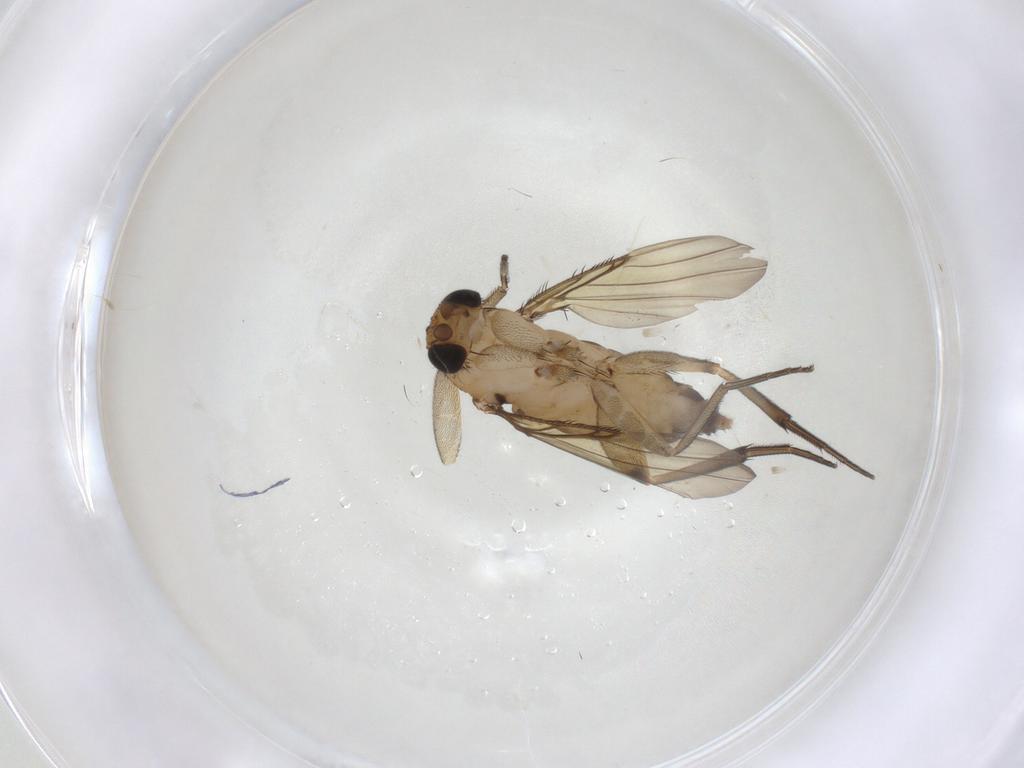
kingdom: Animalia
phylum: Arthropoda
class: Insecta
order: Diptera
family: Phoridae
